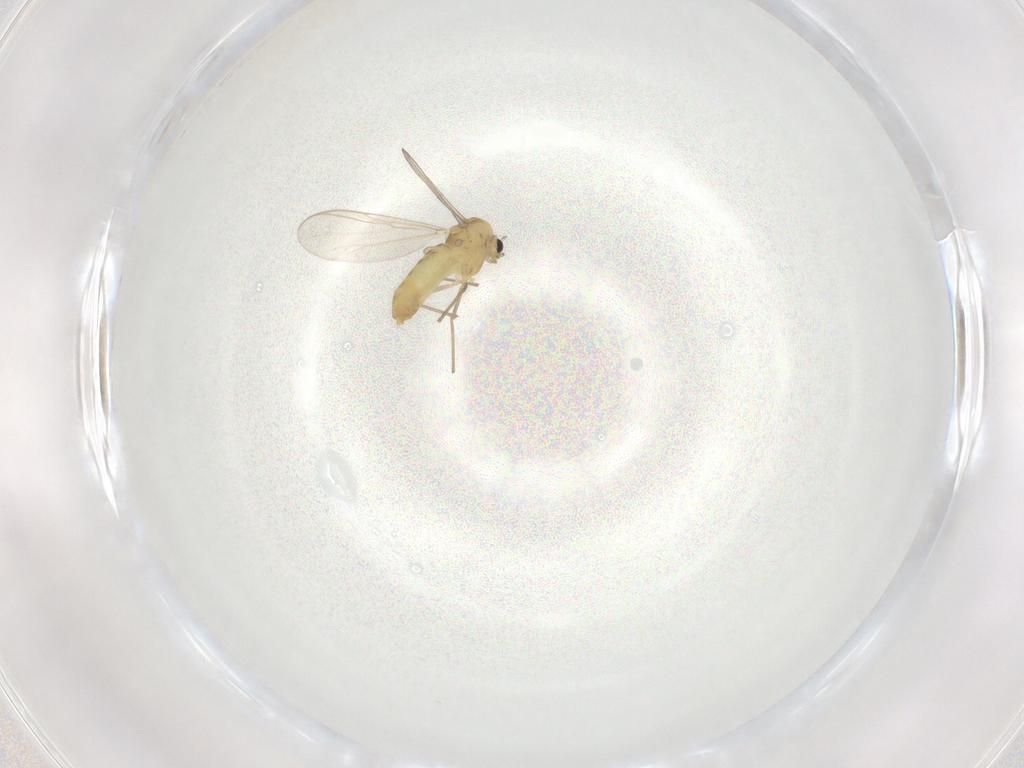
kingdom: Animalia
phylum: Arthropoda
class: Insecta
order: Diptera
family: Chironomidae
